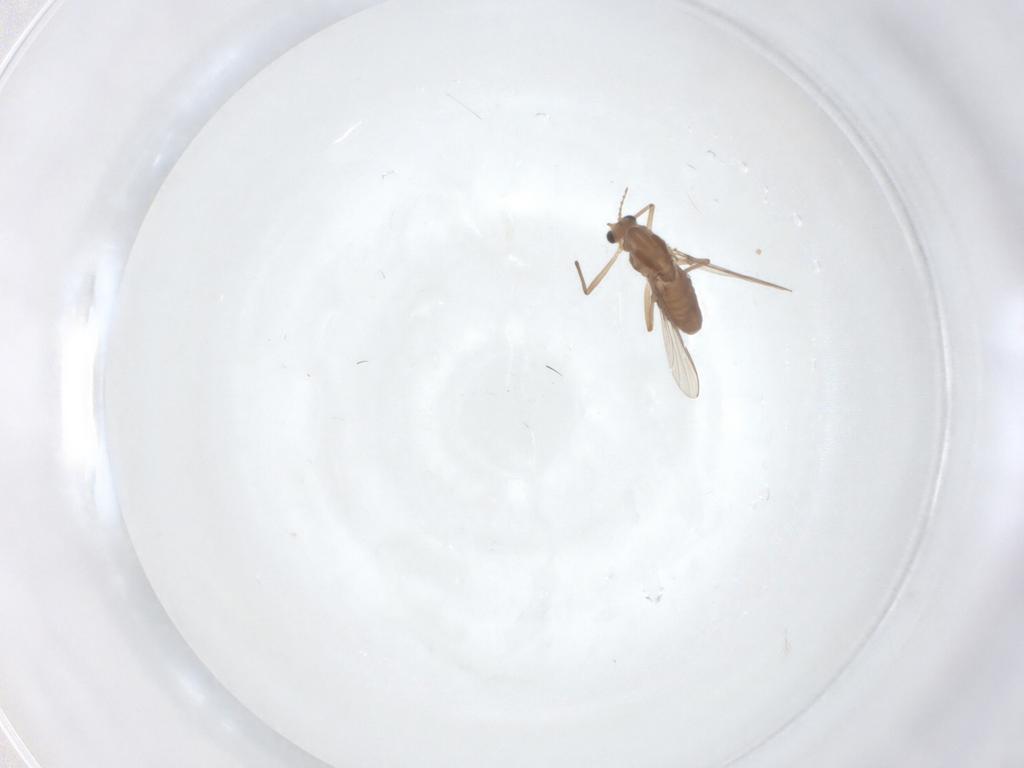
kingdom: Animalia
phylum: Arthropoda
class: Insecta
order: Diptera
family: Chironomidae
